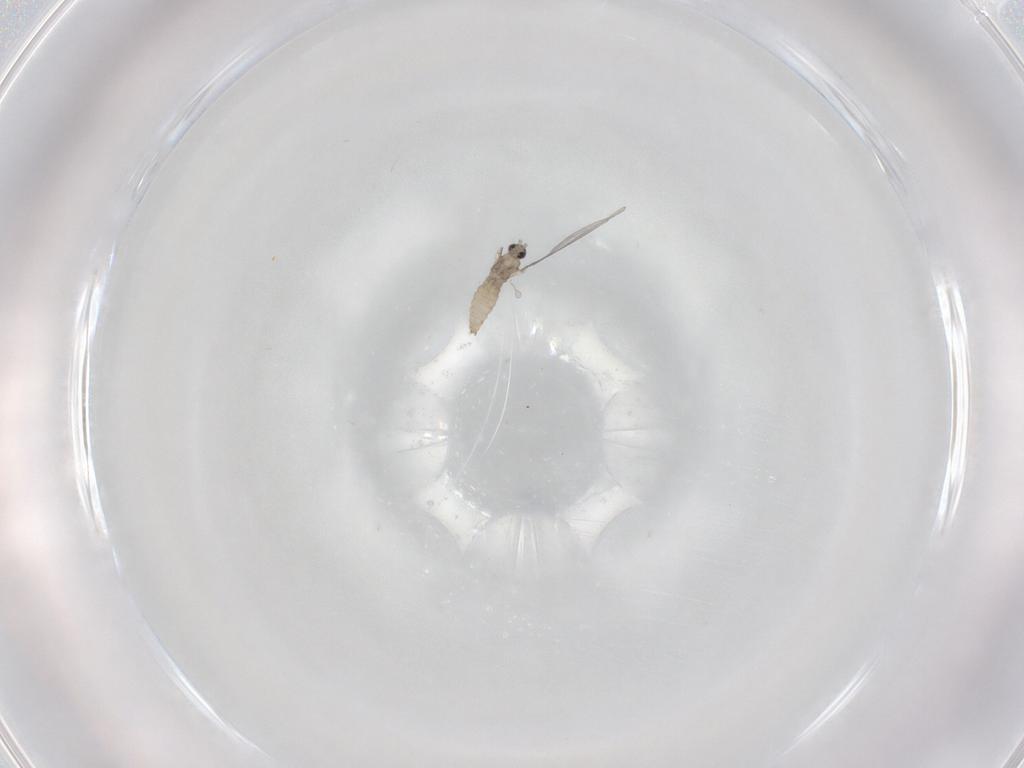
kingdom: Animalia
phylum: Arthropoda
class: Insecta
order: Diptera
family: Cecidomyiidae
